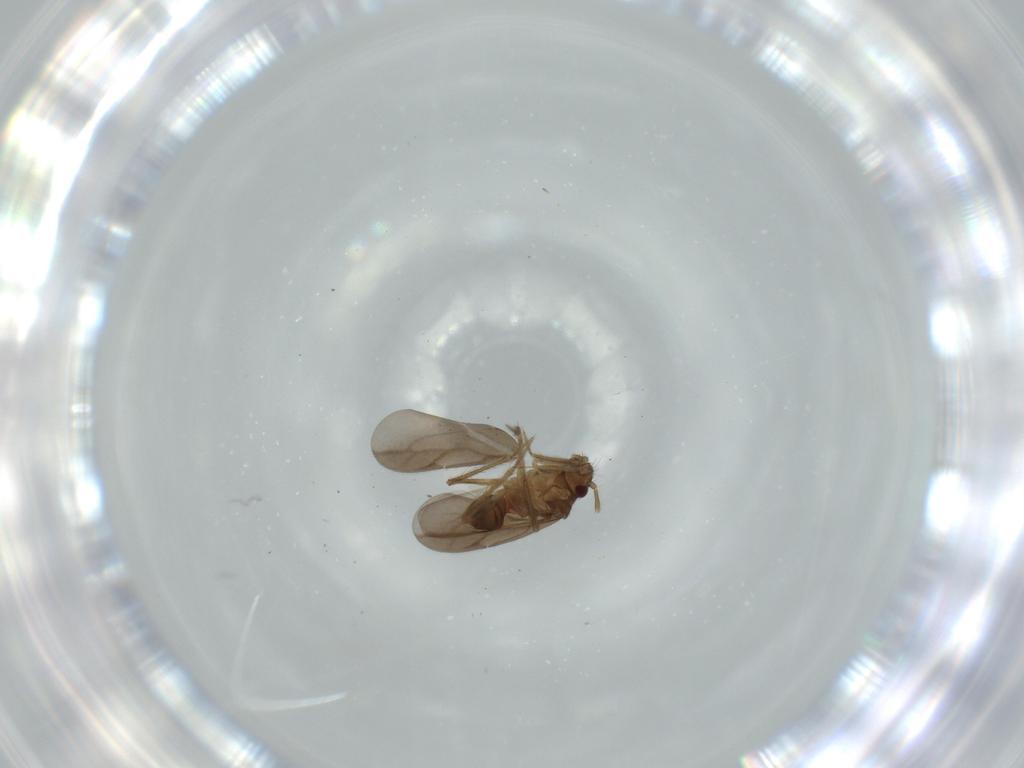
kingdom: Animalia
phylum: Arthropoda
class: Insecta
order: Hemiptera
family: Ceratocombidae
